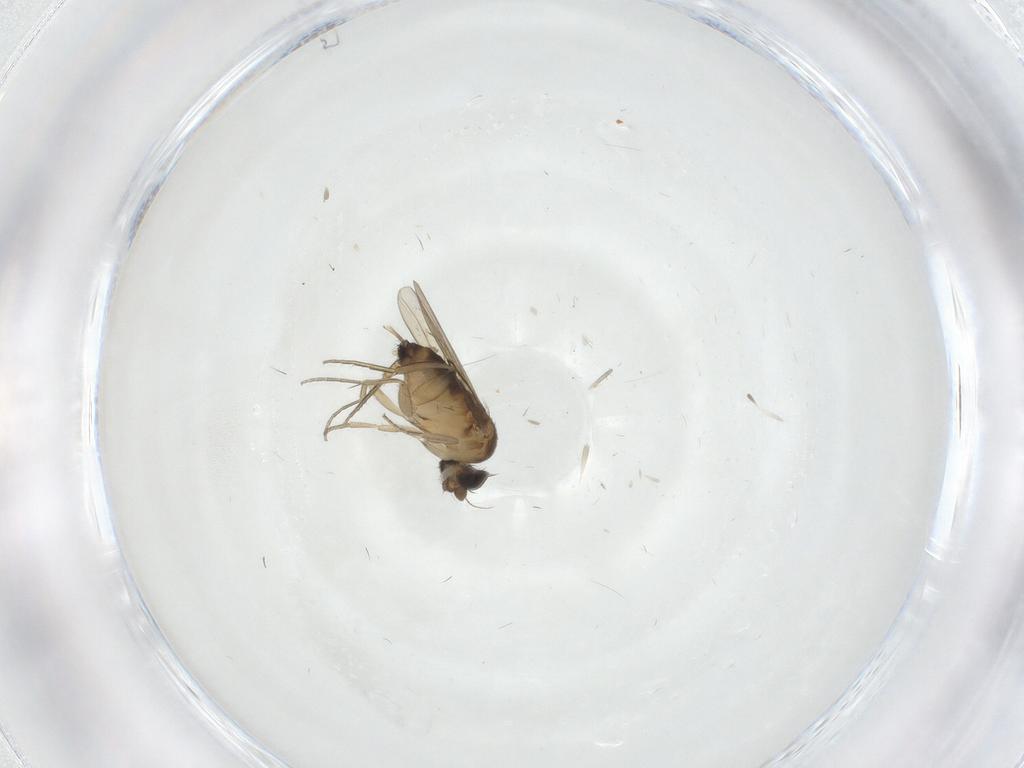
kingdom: Animalia
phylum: Arthropoda
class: Insecta
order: Diptera
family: Phoridae
